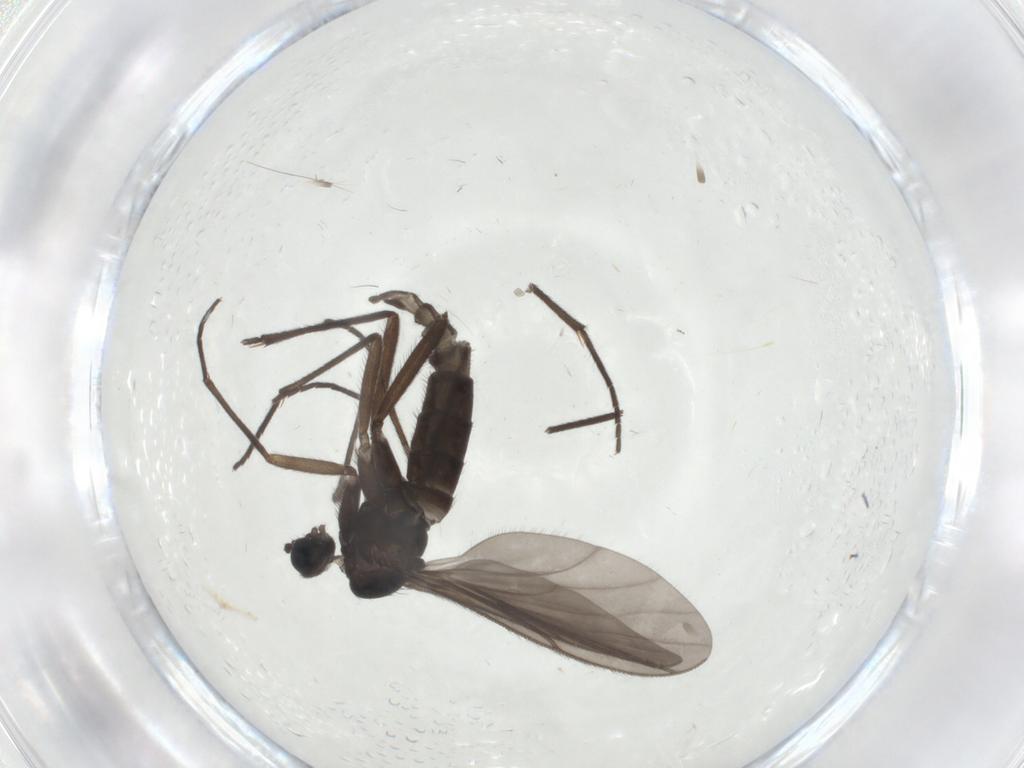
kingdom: Animalia
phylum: Arthropoda
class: Insecta
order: Diptera
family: Sciaridae
